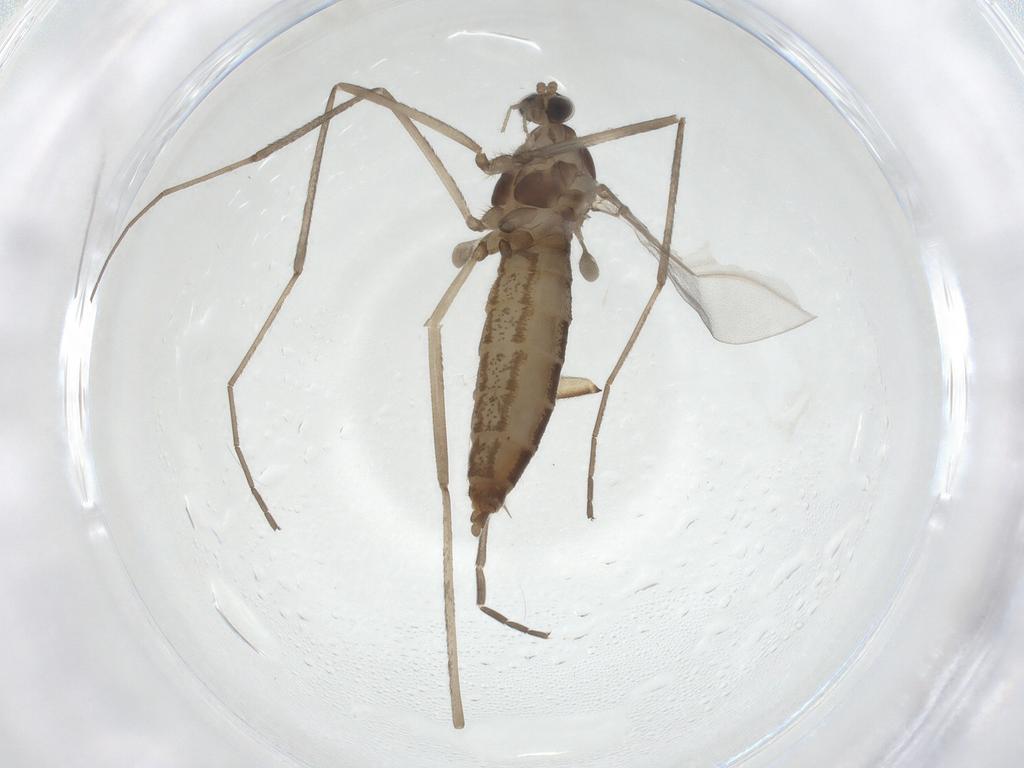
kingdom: Animalia
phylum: Arthropoda
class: Insecta
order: Diptera
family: Mycetophilidae
